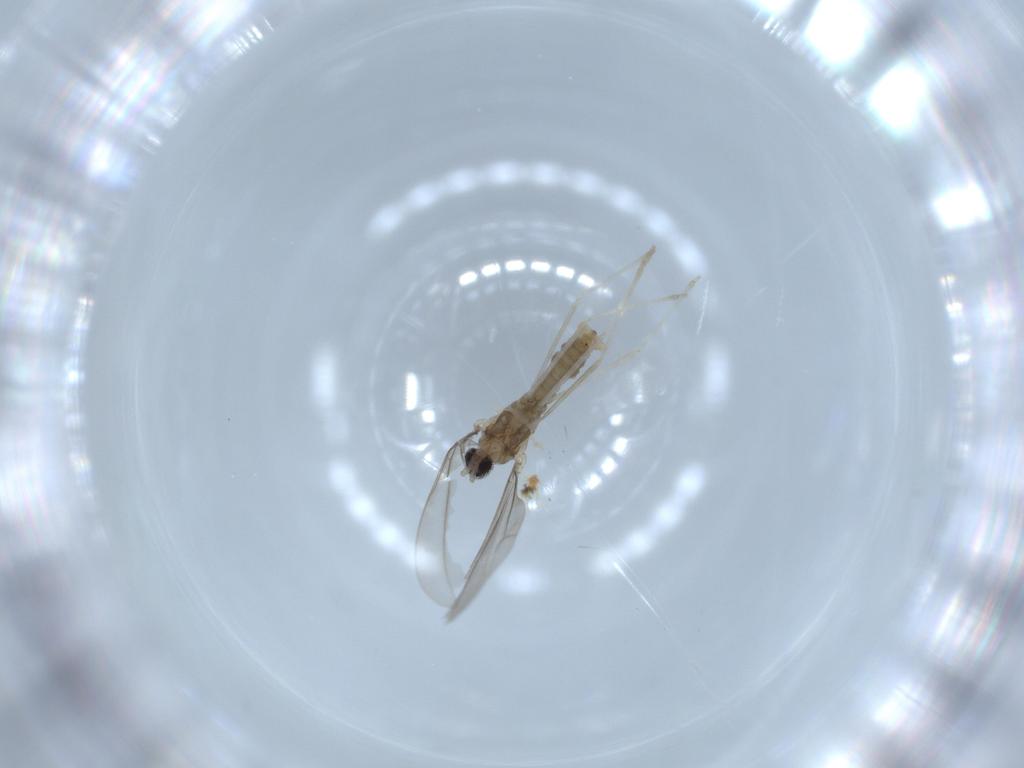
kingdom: Animalia
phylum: Arthropoda
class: Insecta
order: Diptera
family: Cecidomyiidae
